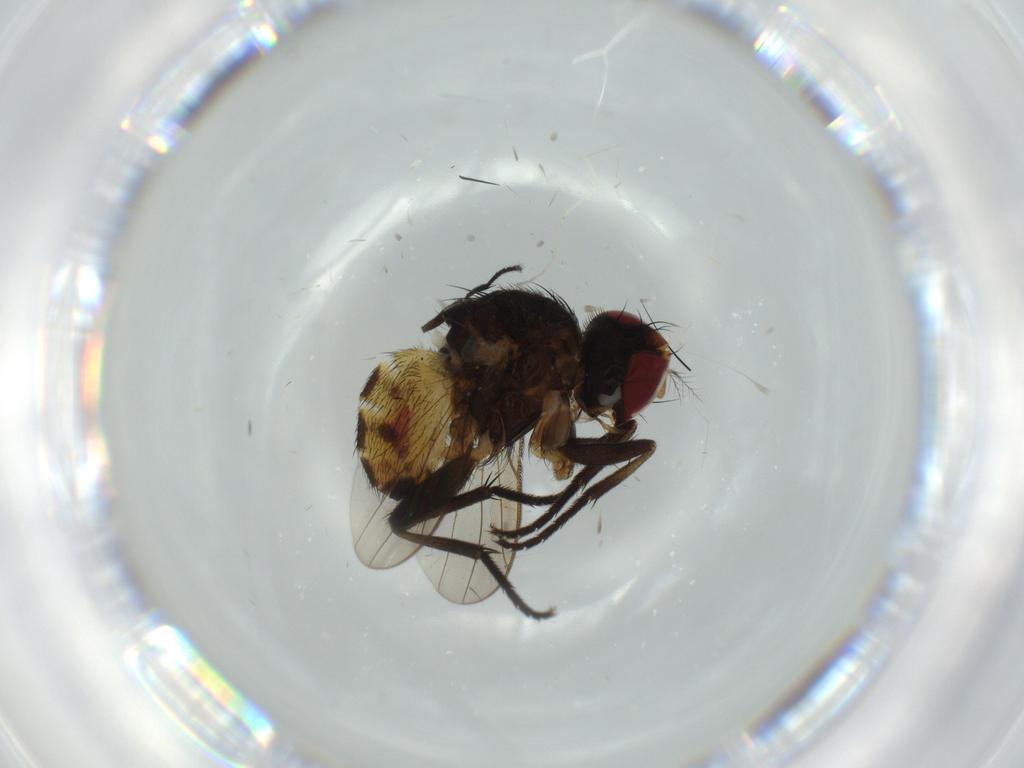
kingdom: Animalia
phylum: Arthropoda
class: Insecta
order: Diptera
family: Anthomyiidae
